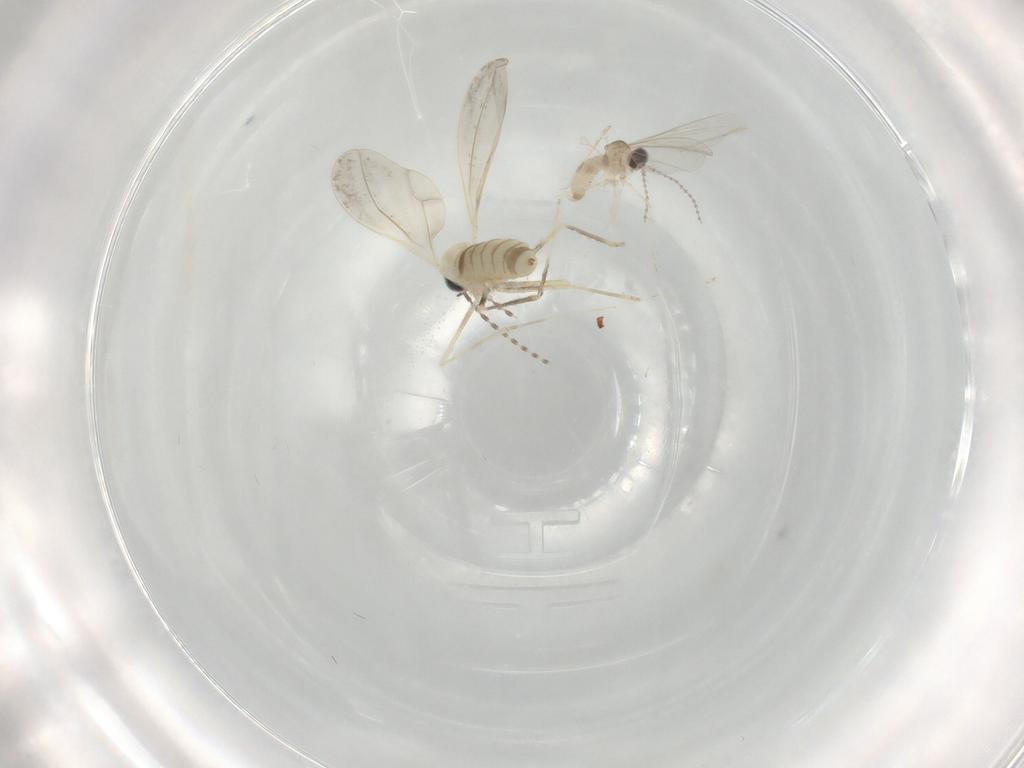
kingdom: Animalia
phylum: Arthropoda
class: Insecta
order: Diptera
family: Cecidomyiidae
